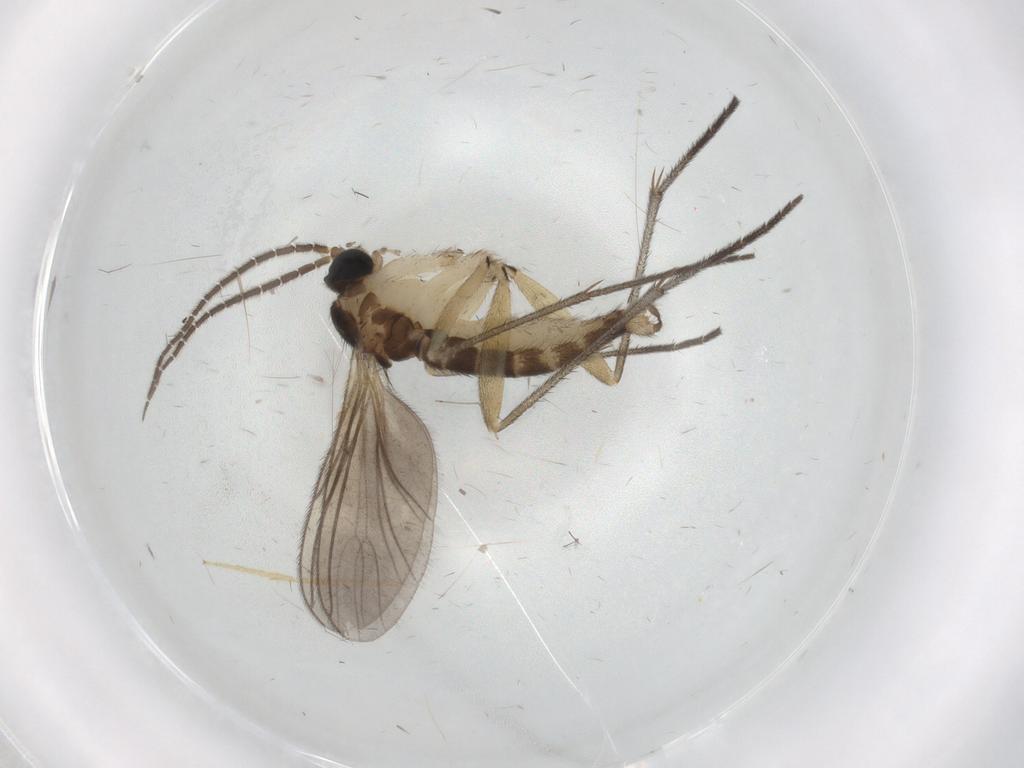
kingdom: Animalia
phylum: Arthropoda
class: Insecta
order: Diptera
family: Sciaridae
